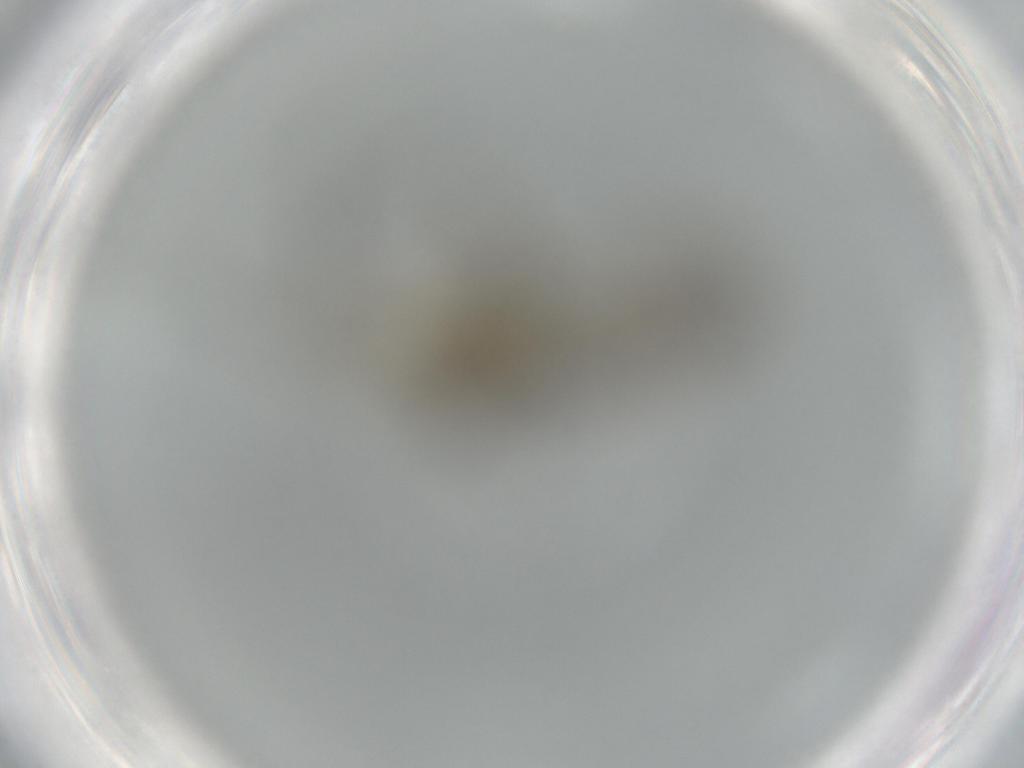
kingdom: Animalia
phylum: Arthropoda
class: Insecta
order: Diptera
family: Sciaridae
